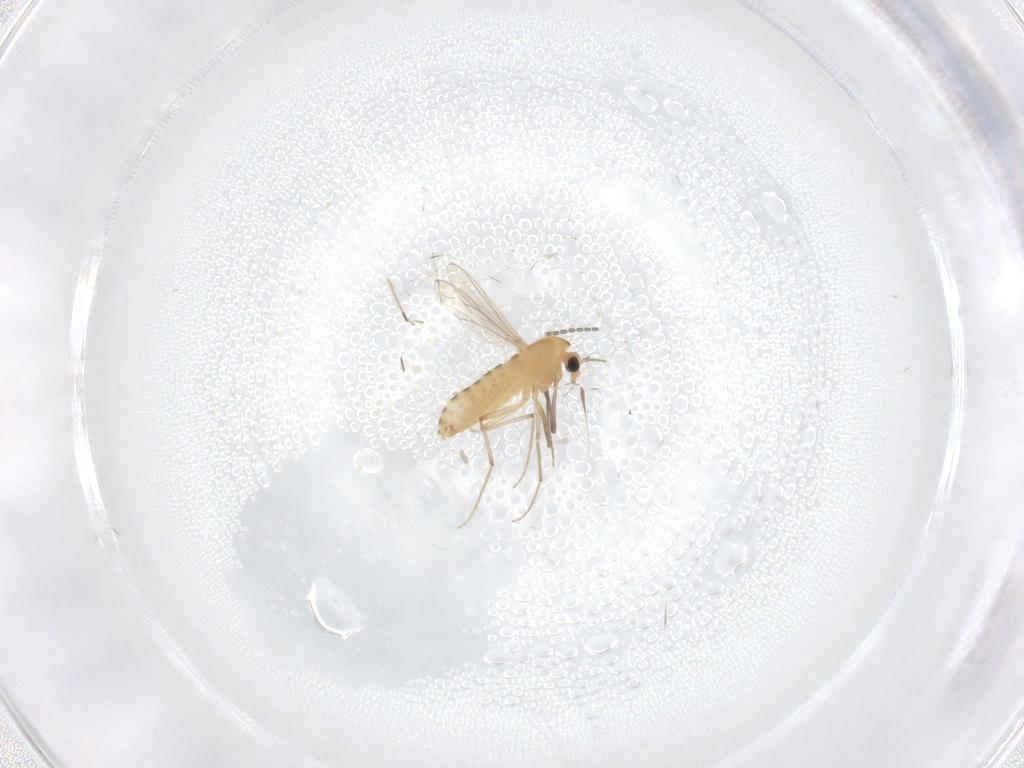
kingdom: Animalia
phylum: Arthropoda
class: Insecta
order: Diptera
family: Chironomidae
